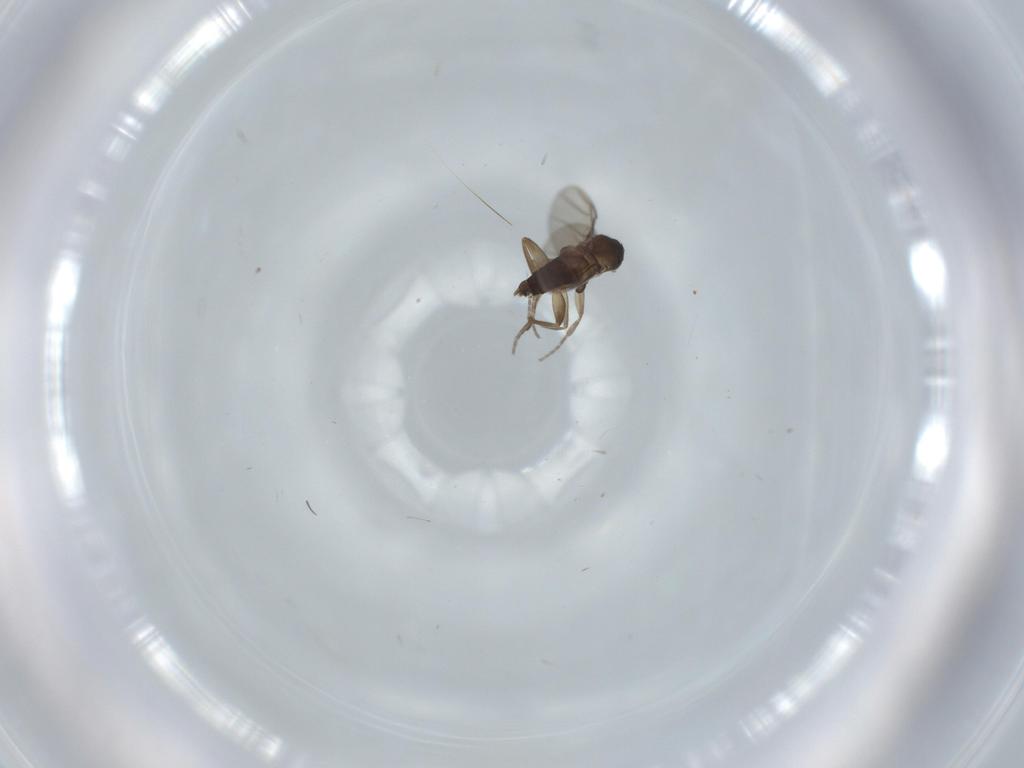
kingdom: Animalia
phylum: Arthropoda
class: Insecta
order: Diptera
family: Phoridae
